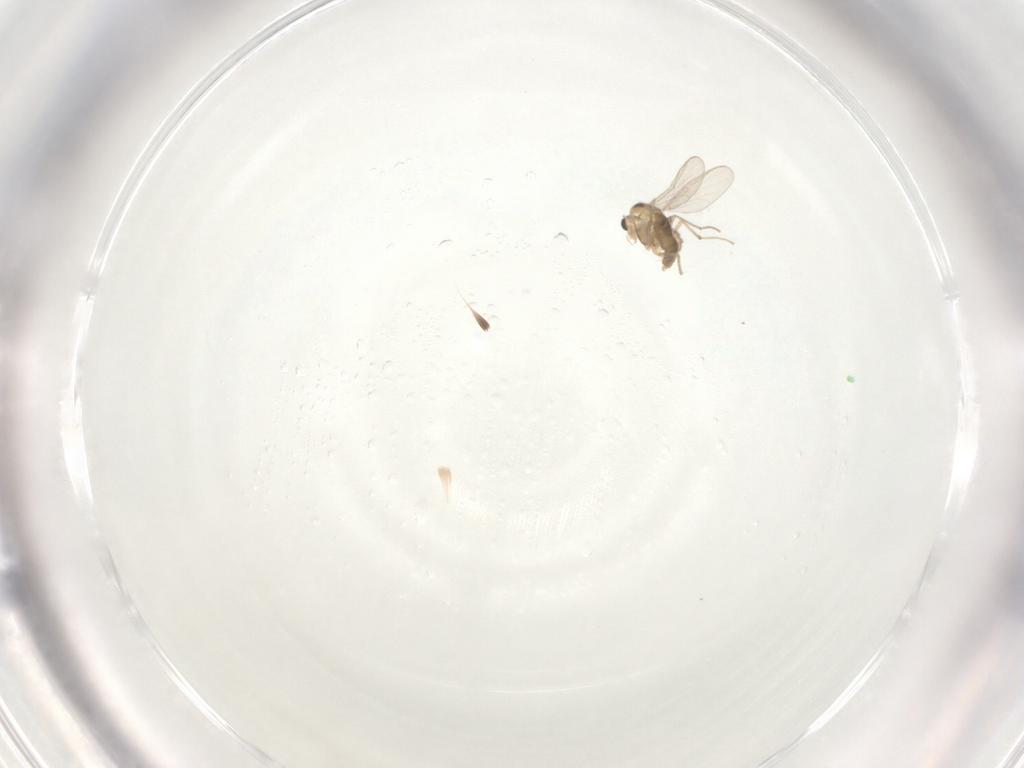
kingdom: Animalia
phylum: Arthropoda
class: Insecta
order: Diptera
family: Chironomidae
